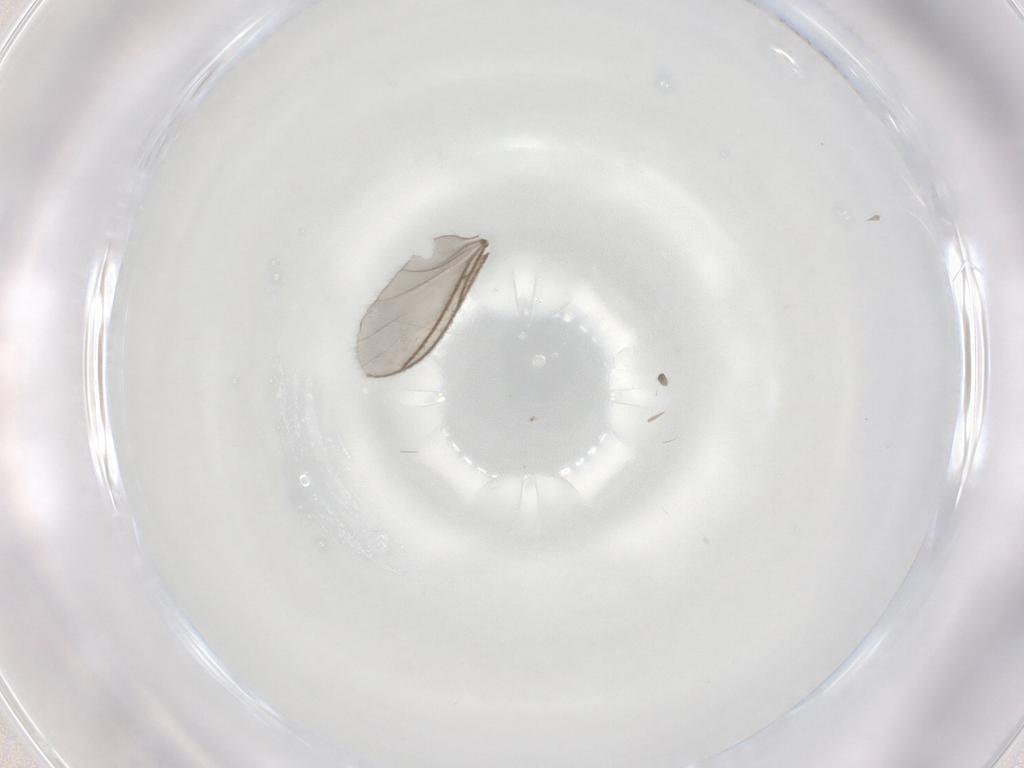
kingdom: Animalia
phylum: Arthropoda
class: Insecta
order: Diptera
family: Sciaridae
